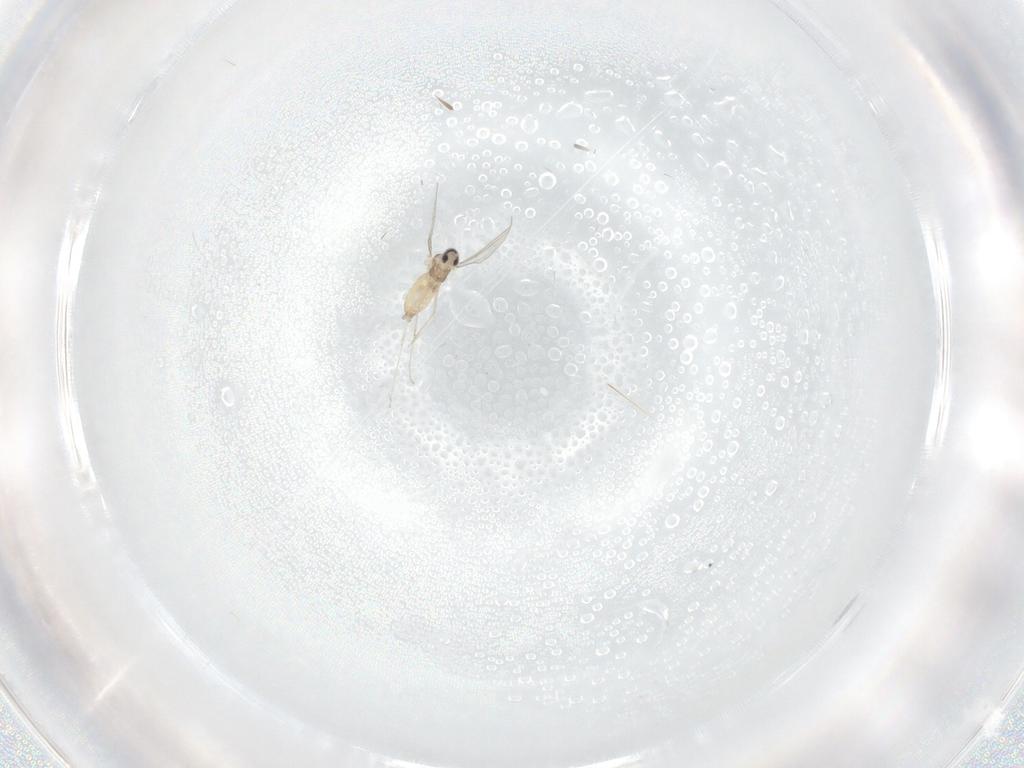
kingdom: Animalia
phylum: Arthropoda
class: Insecta
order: Diptera
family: Cecidomyiidae
